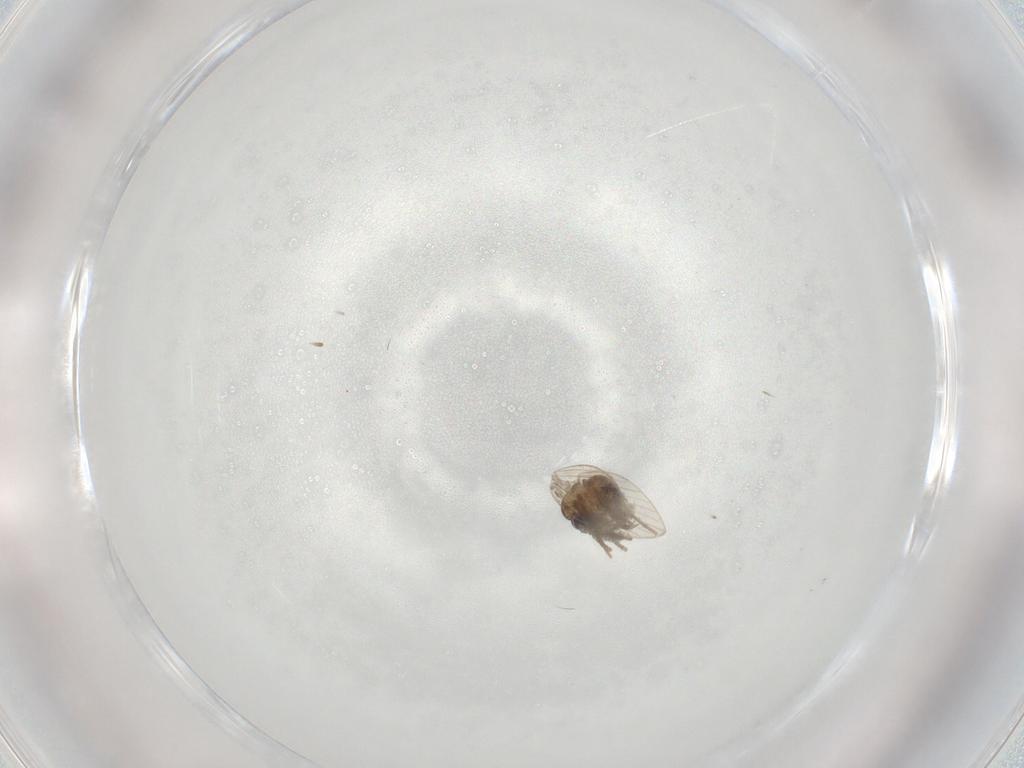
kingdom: Animalia
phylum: Arthropoda
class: Insecta
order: Diptera
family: Psychodidae
